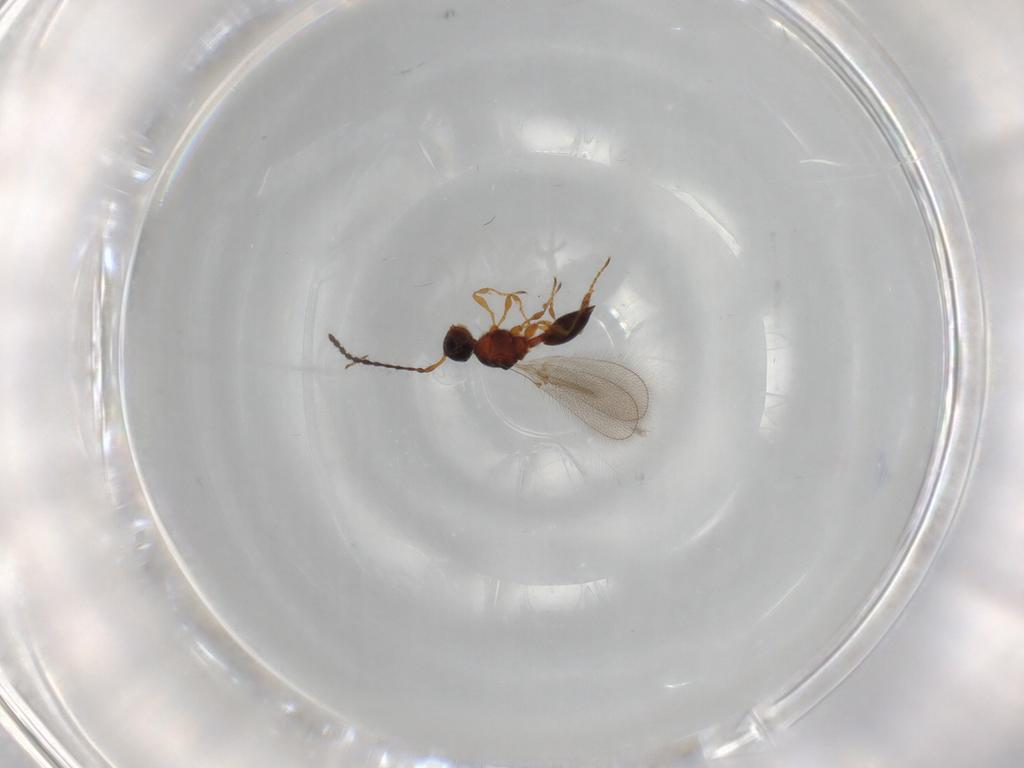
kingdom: Animalia
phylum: Arthropoda
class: Insecta
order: Hymenoptera
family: Diapriidae
